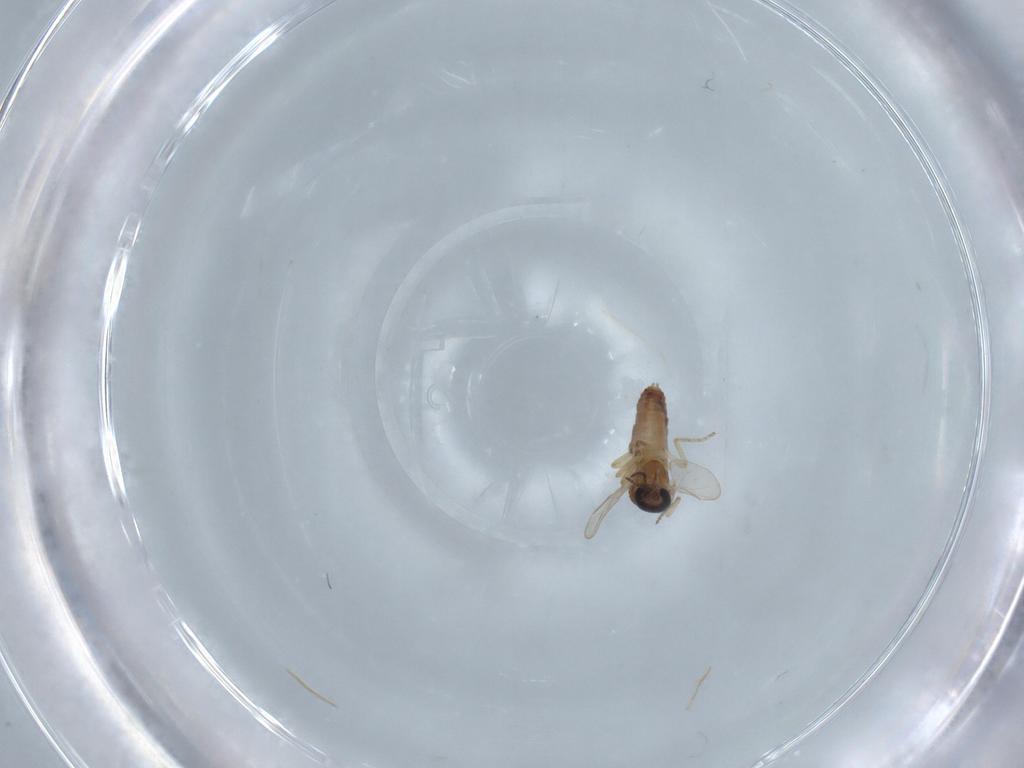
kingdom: Animalia
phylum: Arthropoda
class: Insecta
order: Diptera
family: Ceratopogonidae
